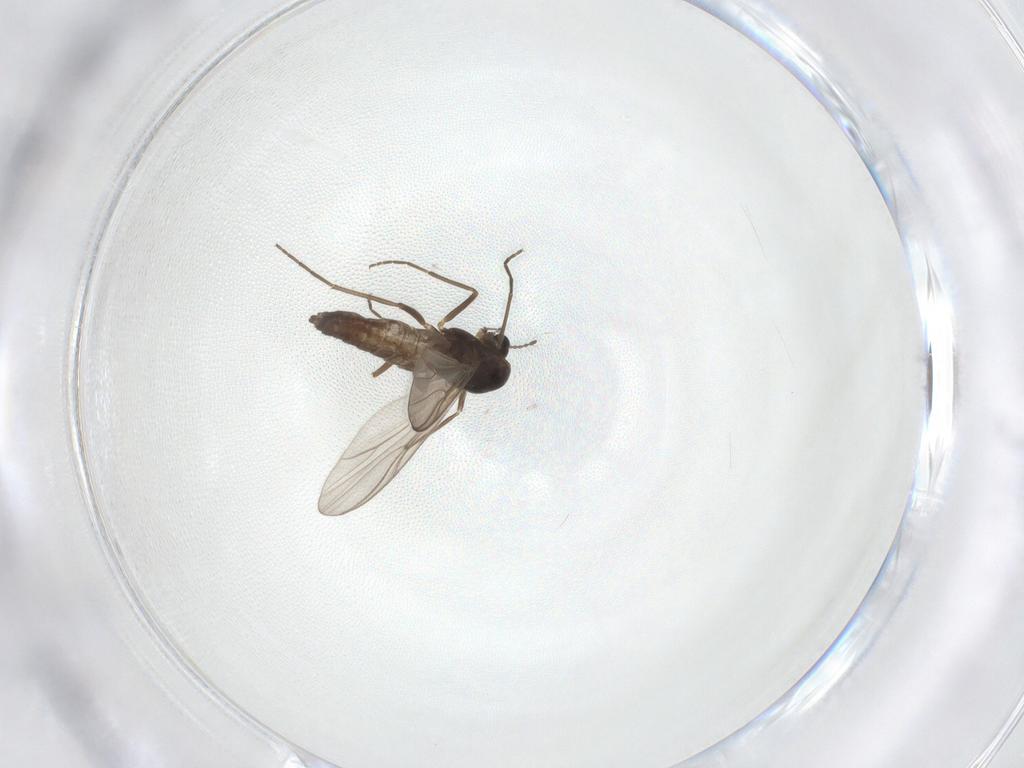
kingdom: Animalia
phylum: Arthropoda
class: Insecta
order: Diptera
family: Chironomidae
